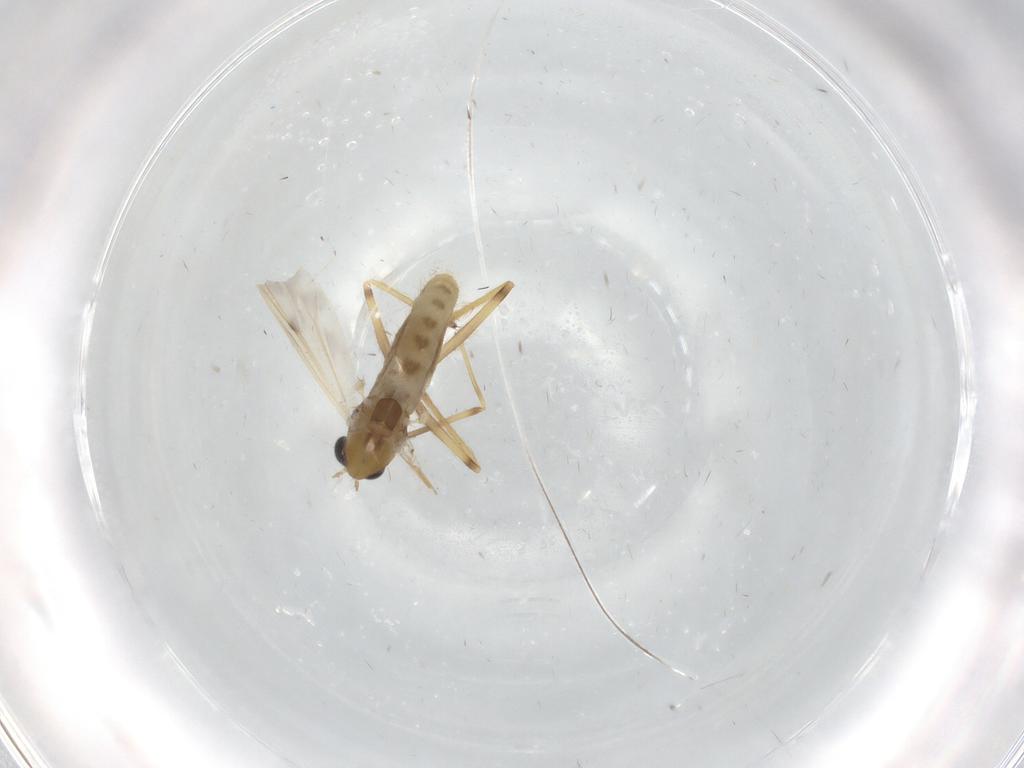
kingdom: Animalia
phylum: Arthropoda
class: Insecta
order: Diptera
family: Chironomidae
